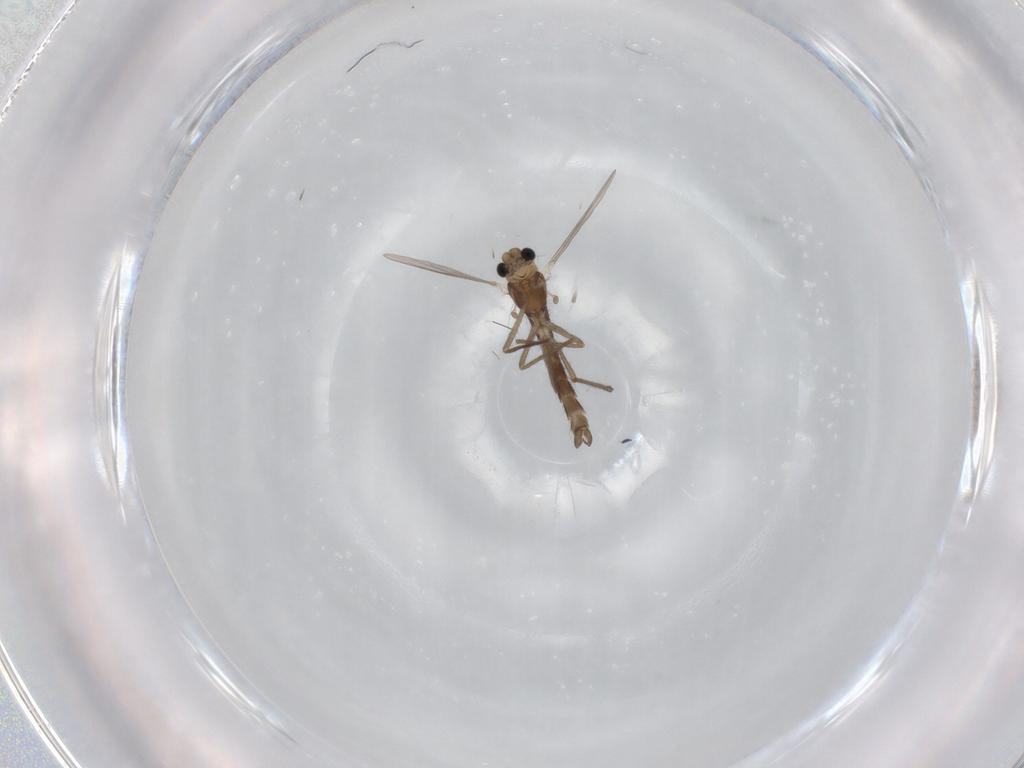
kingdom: Animalia
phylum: Arthropoda
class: Insecta
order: Diptera
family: Chironomidae
